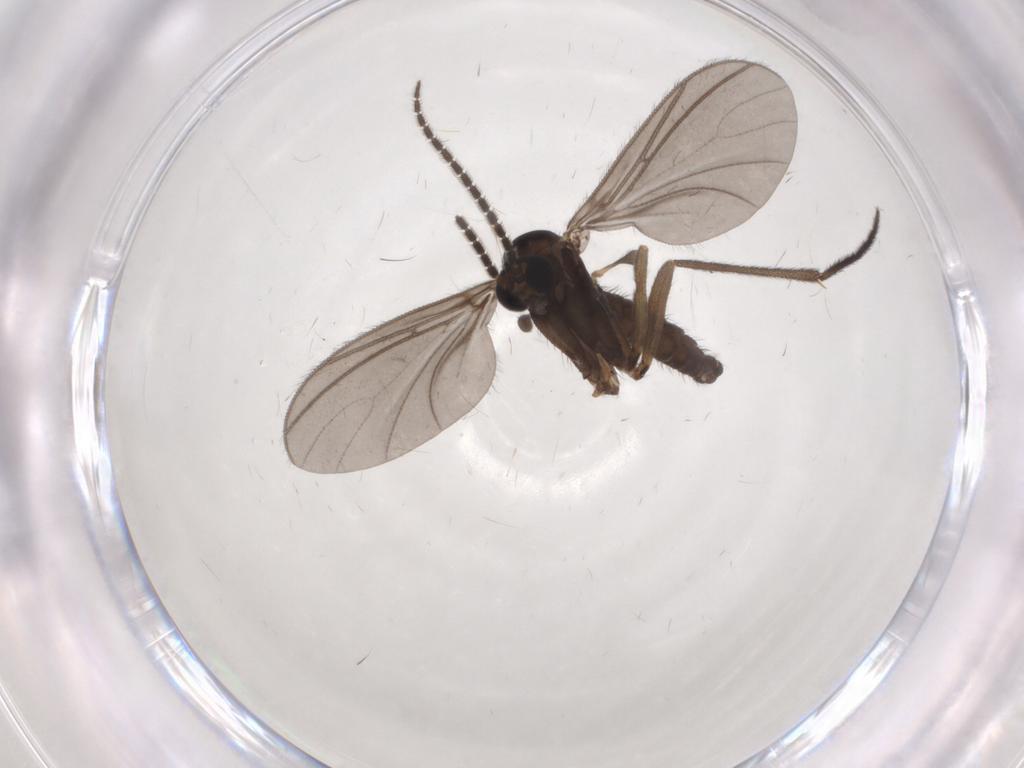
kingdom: Animalia
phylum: Arthropoda
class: Insecta
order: Diptera
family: Sciaridae
